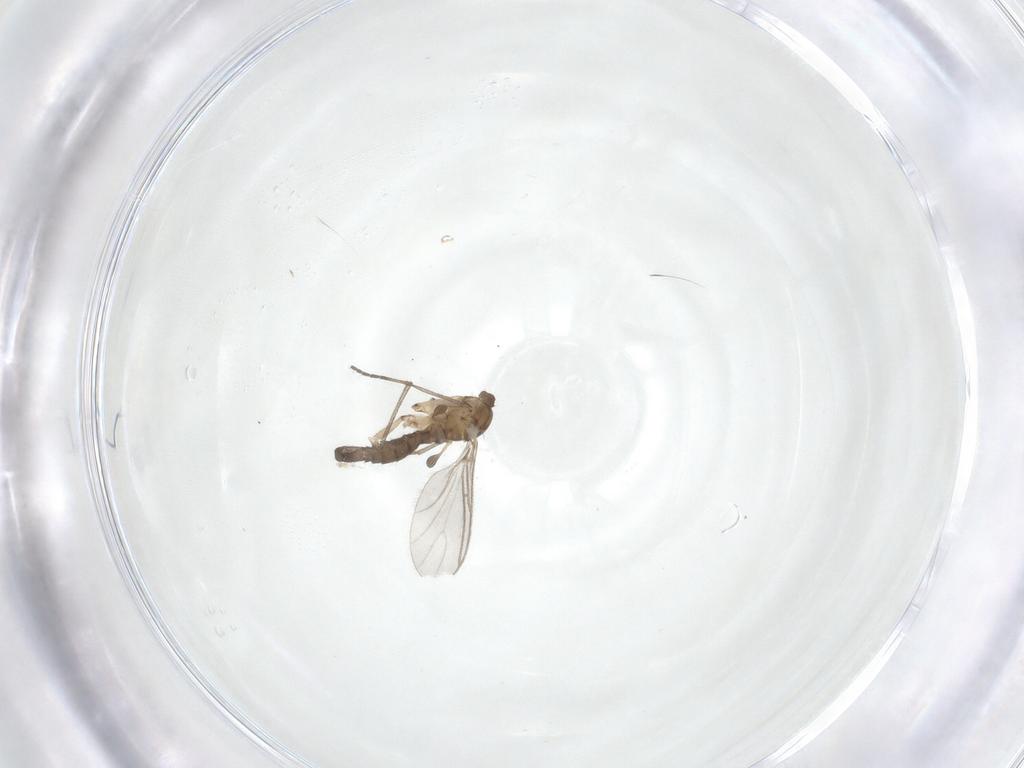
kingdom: Animalia
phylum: Arthropoda
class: Insecta
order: Diptera
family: Sciaridae
